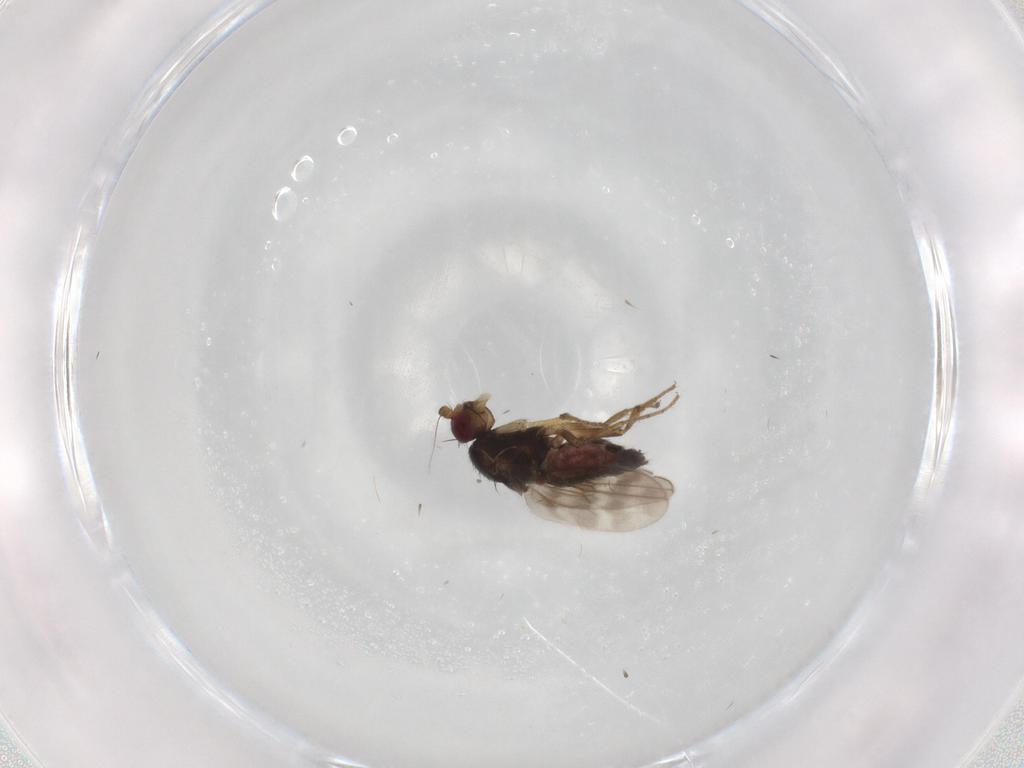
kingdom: Animalia
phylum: Arthropoda
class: Insecta
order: Diptera
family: Sphaeroceridae
